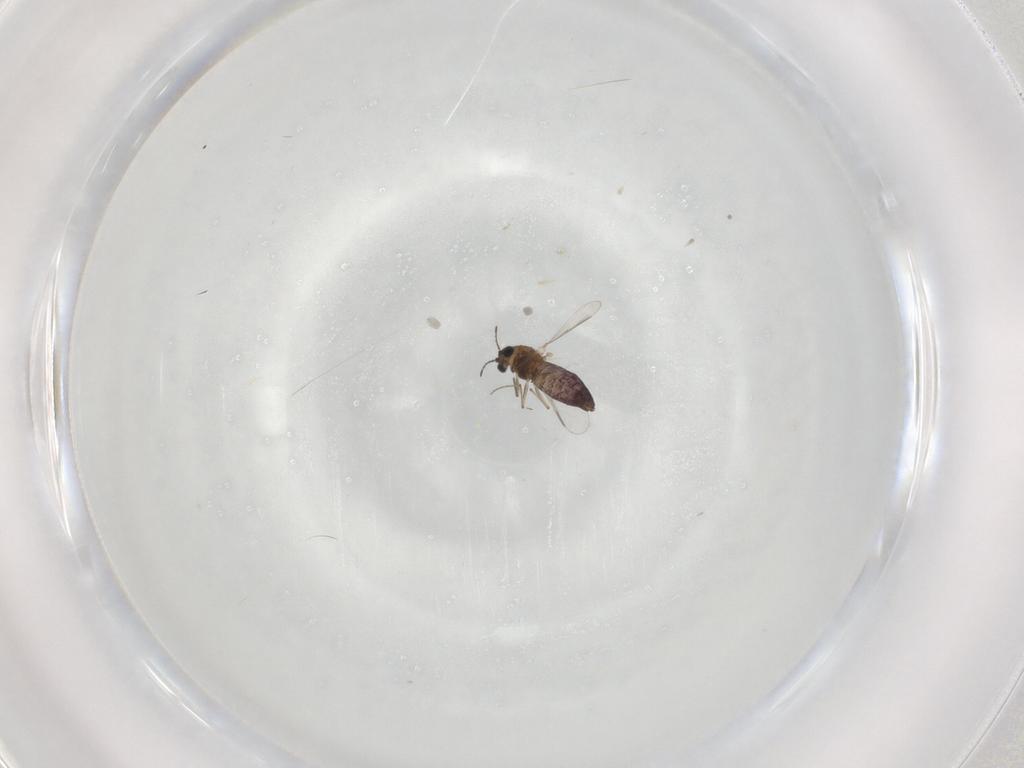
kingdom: Animalia
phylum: Arthropoda
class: Insecta
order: Diptera
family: Chironomidae
